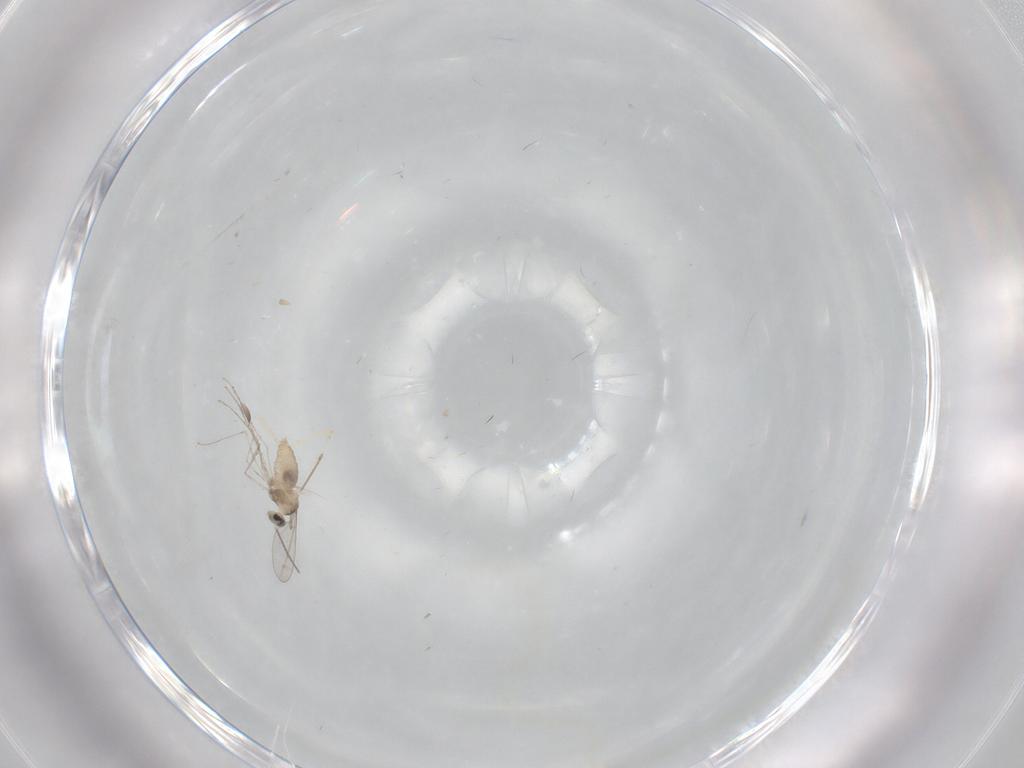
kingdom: Animalia
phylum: Arthropoda
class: Insecta
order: Diptera
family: Cecidomyiidae
